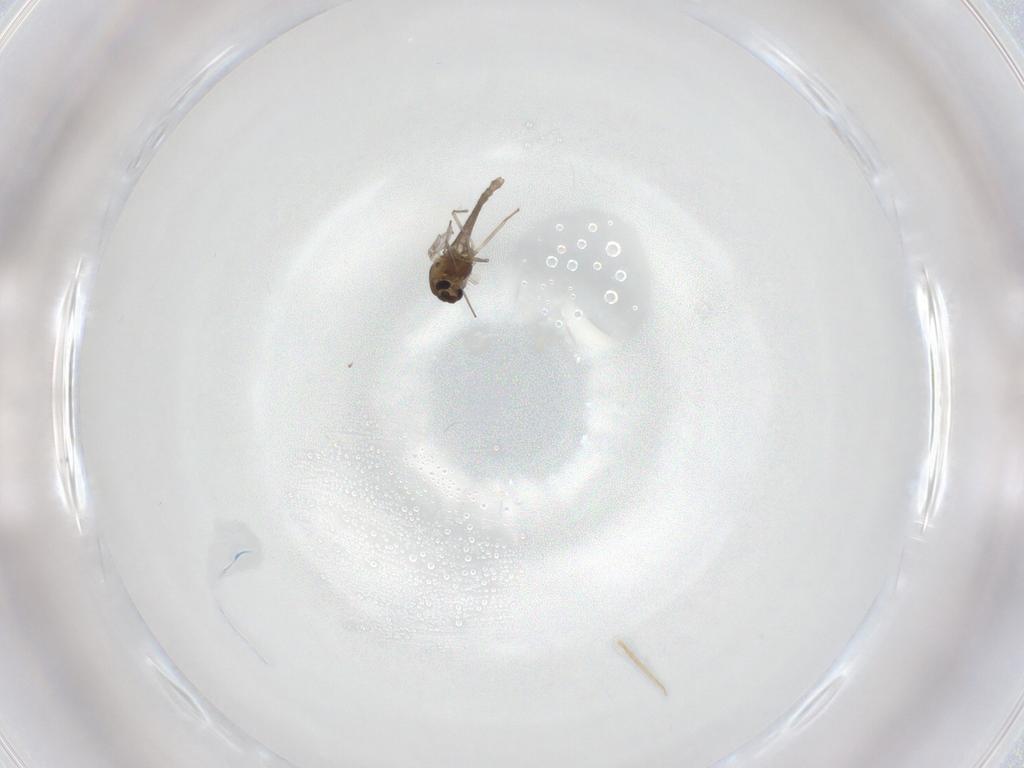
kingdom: Animalia
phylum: Arthropoda
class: Insecta
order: Diptera
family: Chironomidae
